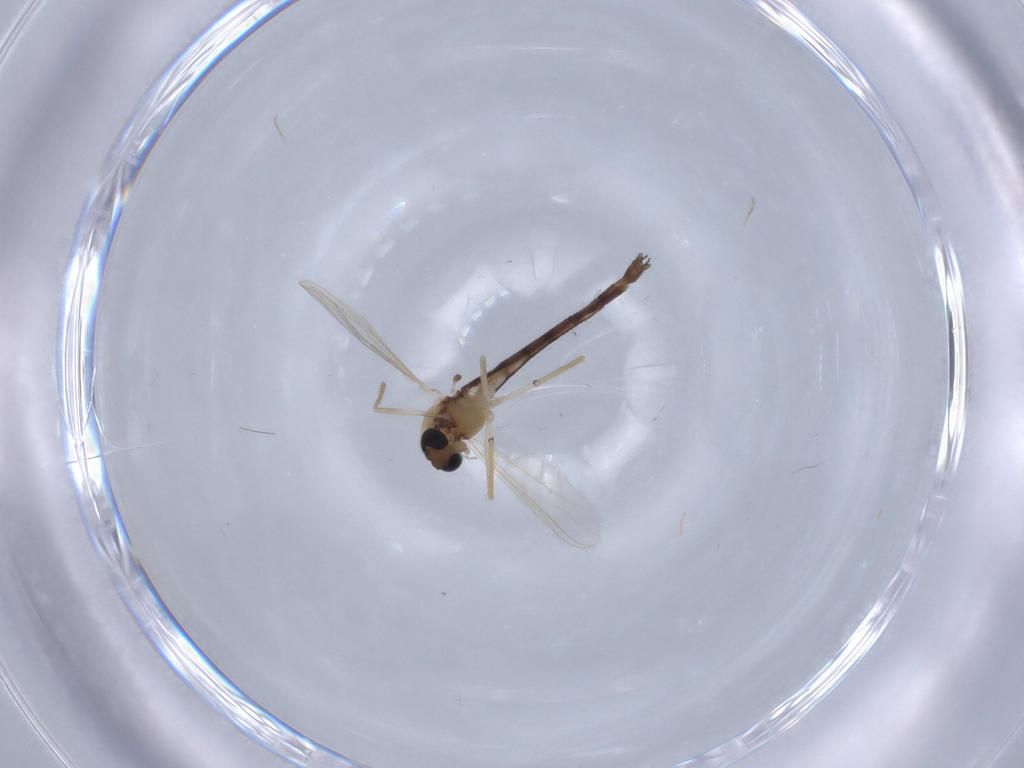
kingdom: Animalia
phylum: Arthropoda
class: Insecta
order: Diptera
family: Chironomidae
